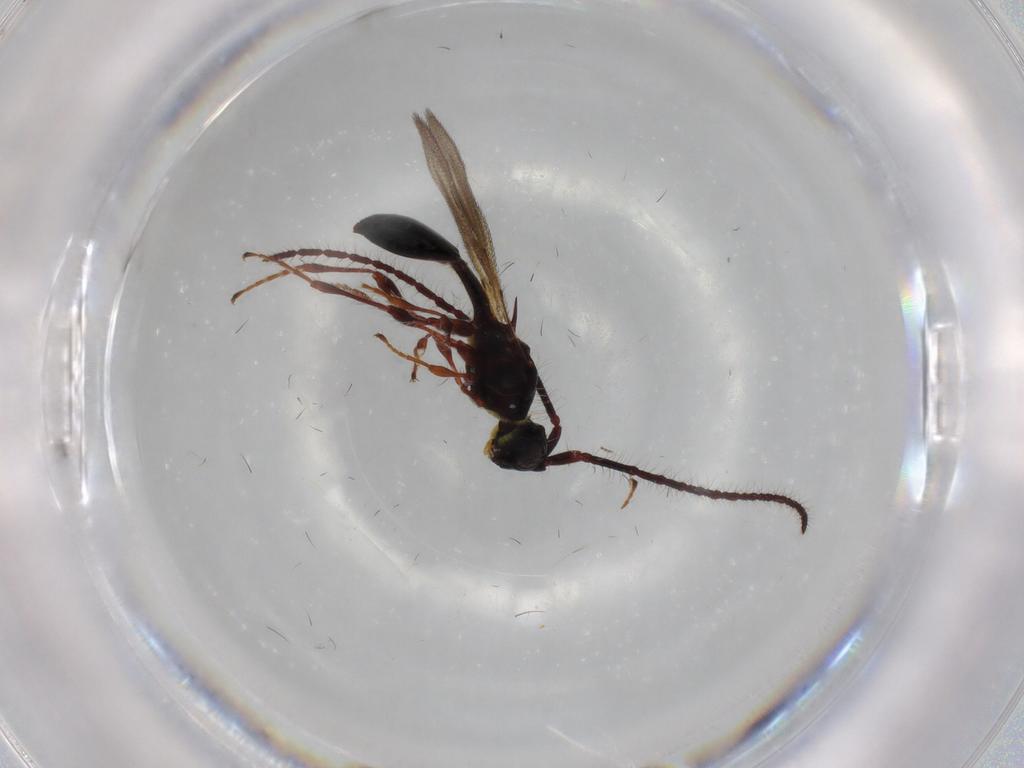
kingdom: Animalia
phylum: Arthropoda
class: Insecta
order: Hymenoptera
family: Diapriidae
